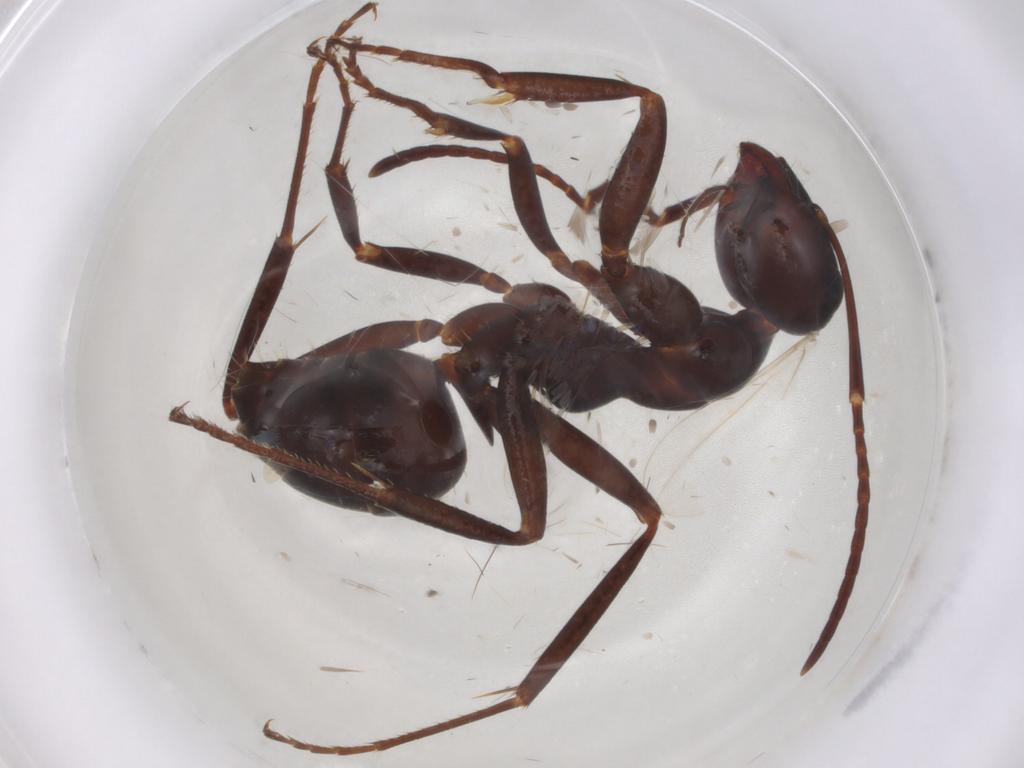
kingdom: Animalia
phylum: Arthropoda
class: Insecta
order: Hymenoptera
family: Formicidae
